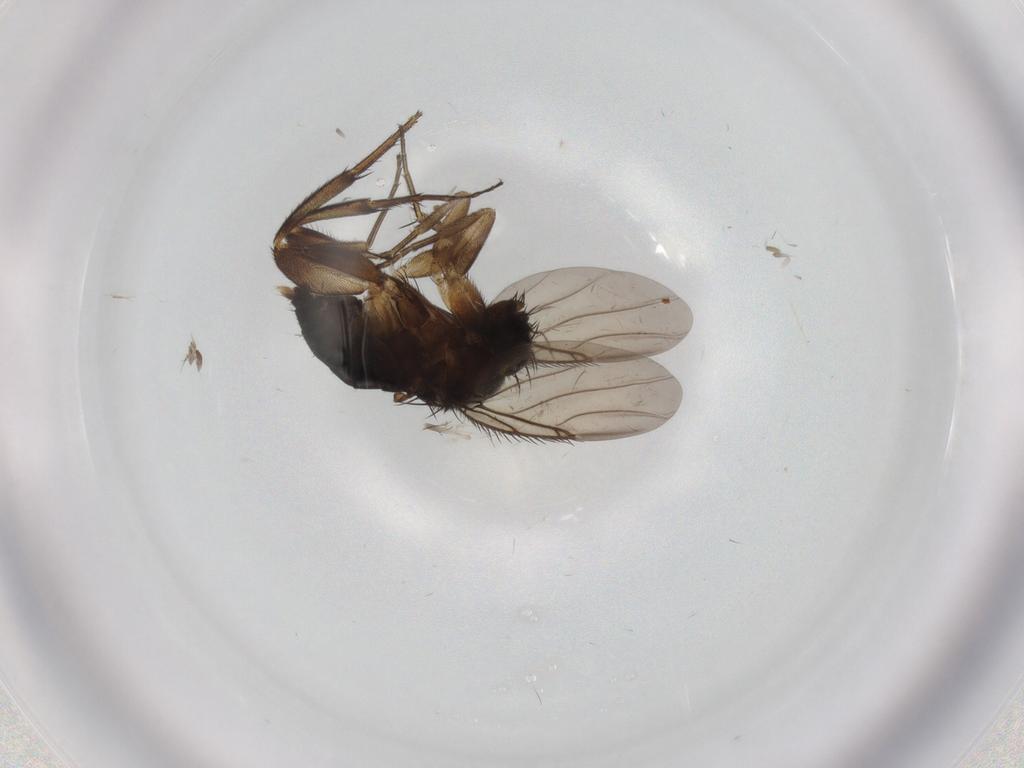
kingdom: Animalia
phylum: Arthropoda
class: Insecta
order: Diptera
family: Phoridae
